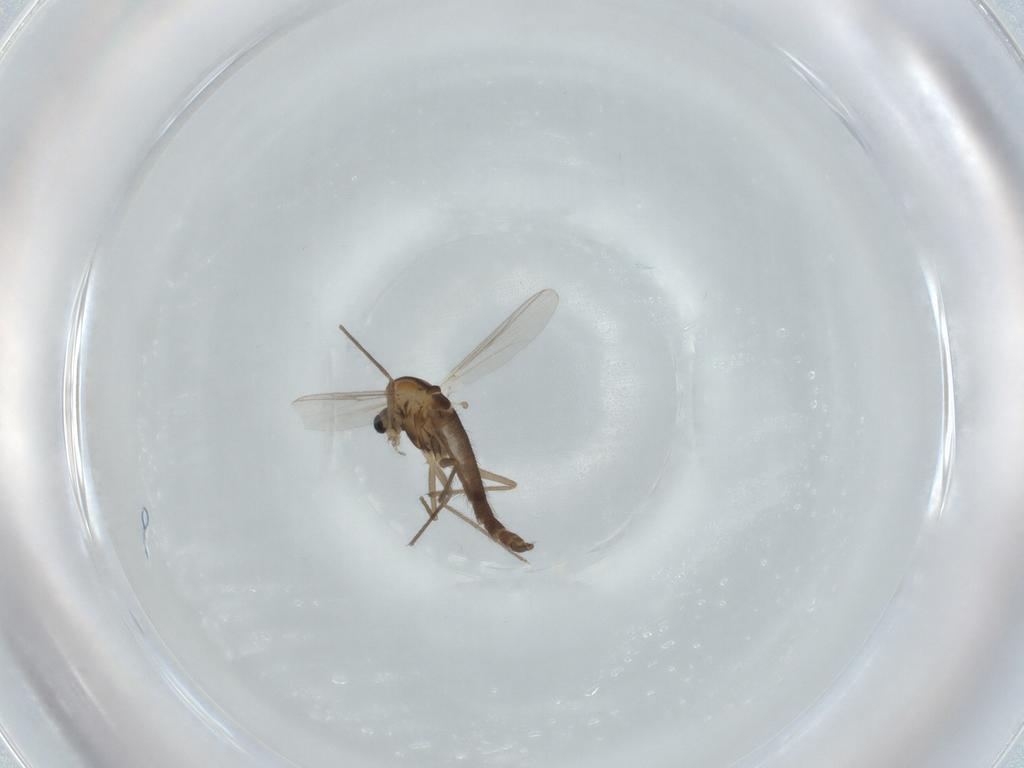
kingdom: Animalia
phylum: Arthropoda
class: Insecta
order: Diptera
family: Chironomidae
